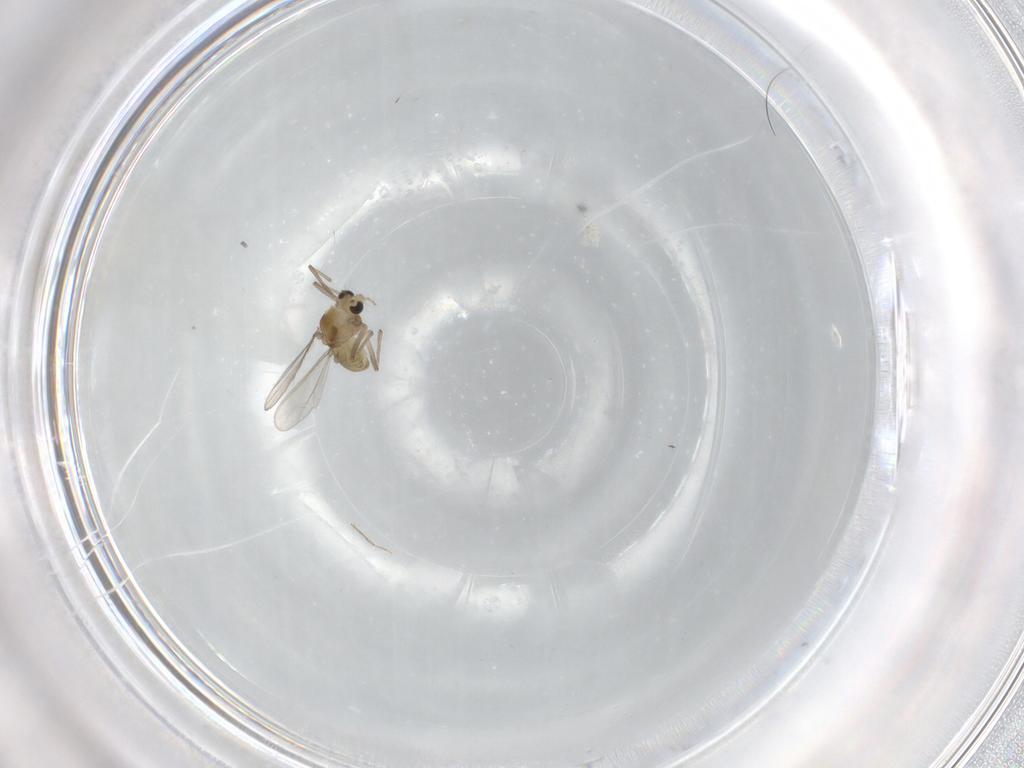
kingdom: Animalia
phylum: Arthropoda
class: Insecta
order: Diptera
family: Chironomidae
